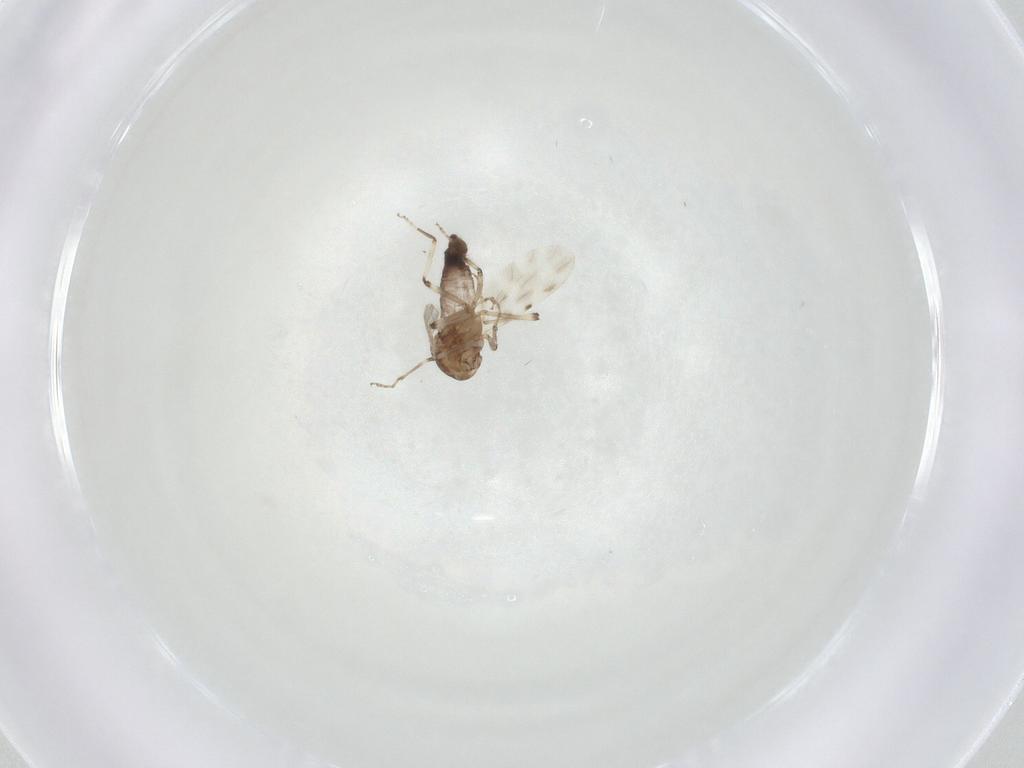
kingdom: Animalia
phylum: Arthropoda
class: Insecta
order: Diptera
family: Ceratopogonidae
